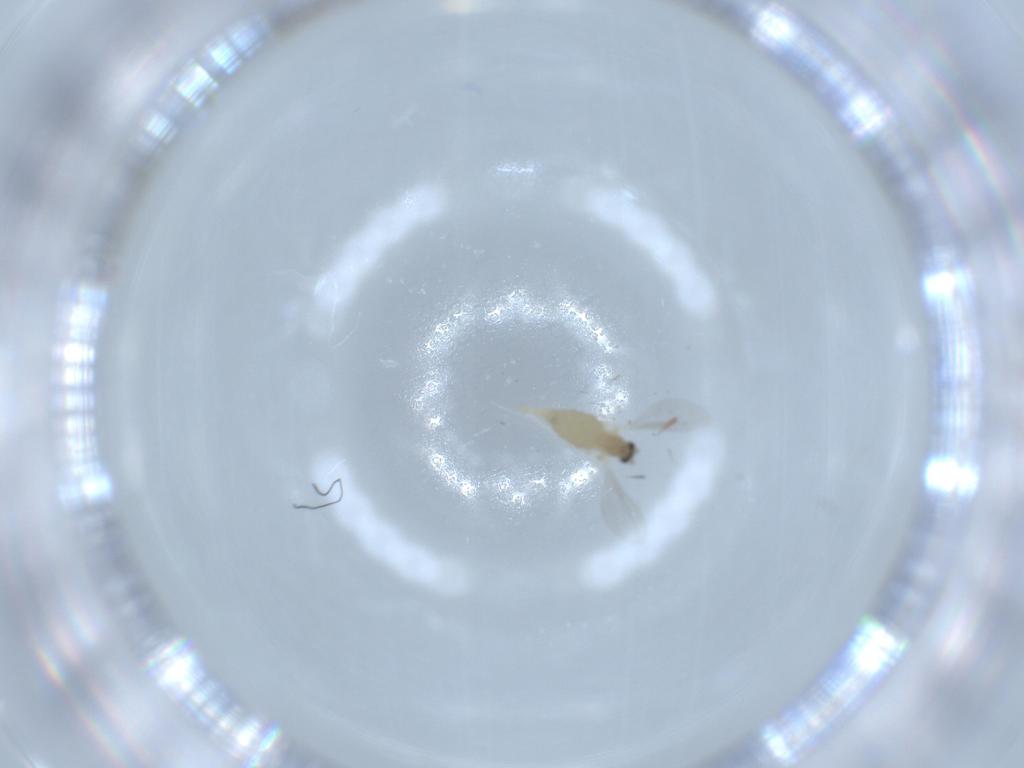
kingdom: Animalia
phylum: Arthropoda
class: Insecta
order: Diptera
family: Cecidomyiidae
